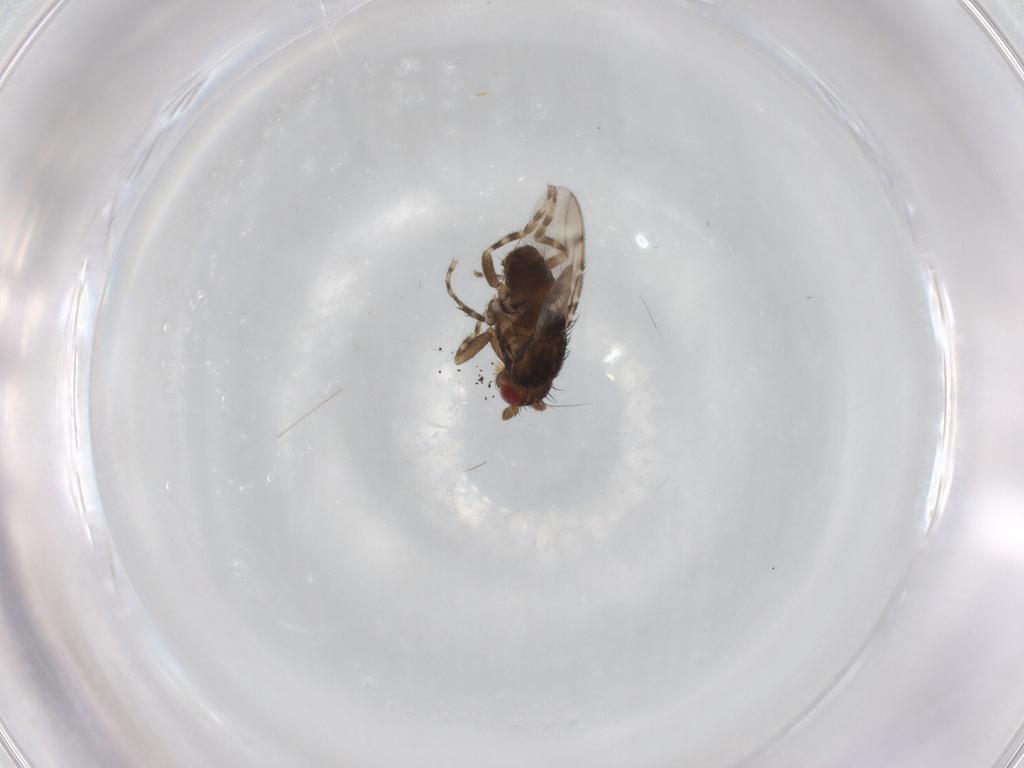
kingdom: Animalia
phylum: Arthropoda
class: Insecta
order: Diptera
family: Sphaeroceridae
